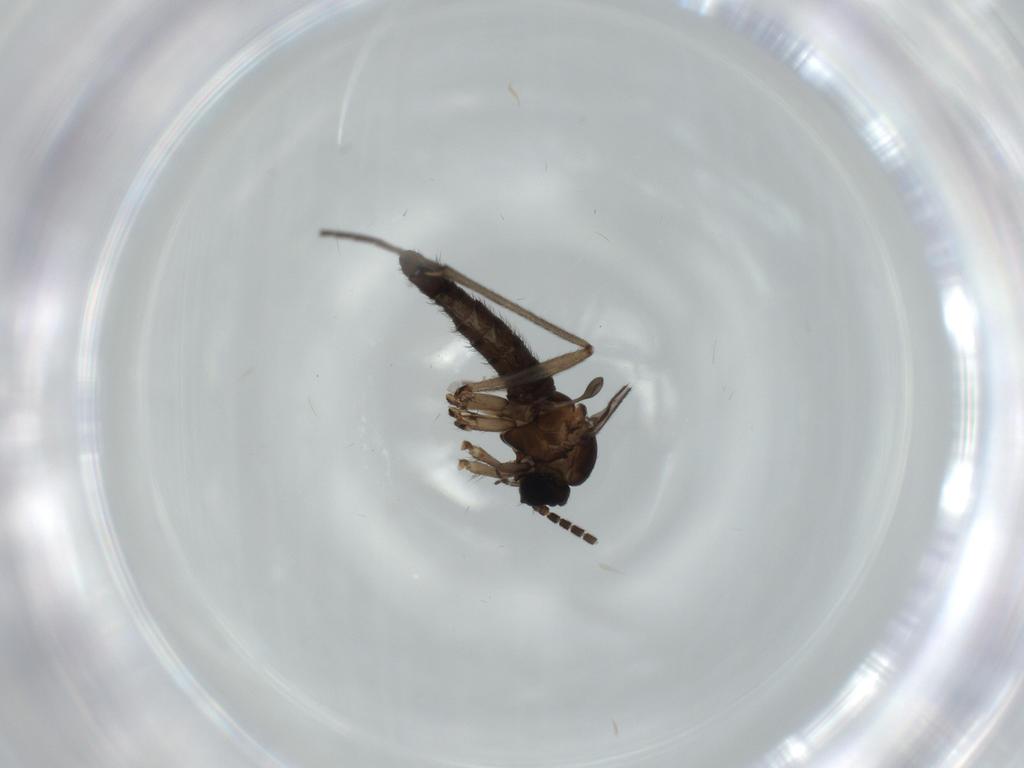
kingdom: Animalia
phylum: Arthropoda
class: Insecta
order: Diptera
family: Sciaridae
